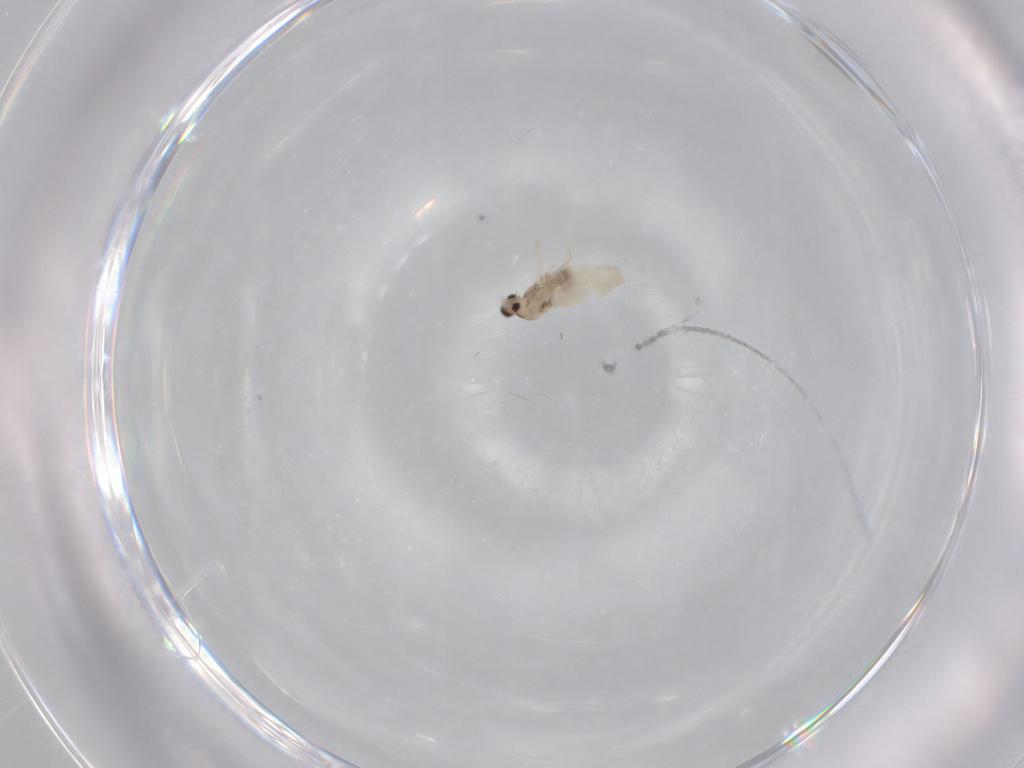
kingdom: Animalia
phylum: Arthropoda
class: Insecta
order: Diptera
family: Cecidomyiidae
